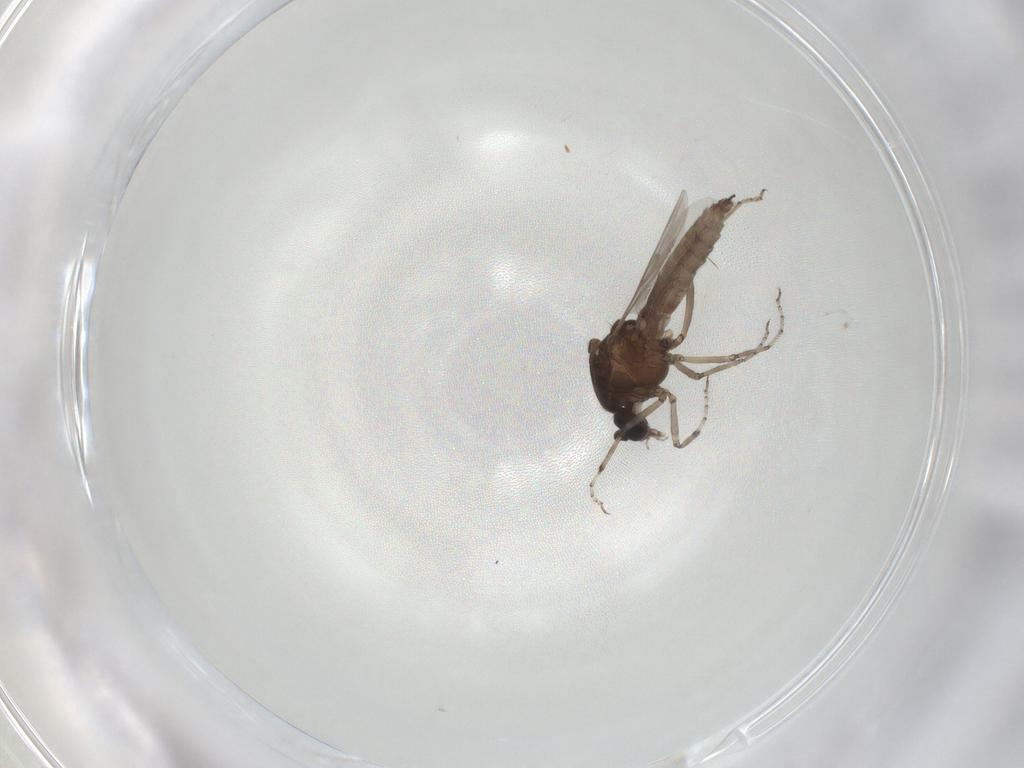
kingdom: Animalia
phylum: Arthropoda
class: Insecta
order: Diptera
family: Ceratopogonidae
